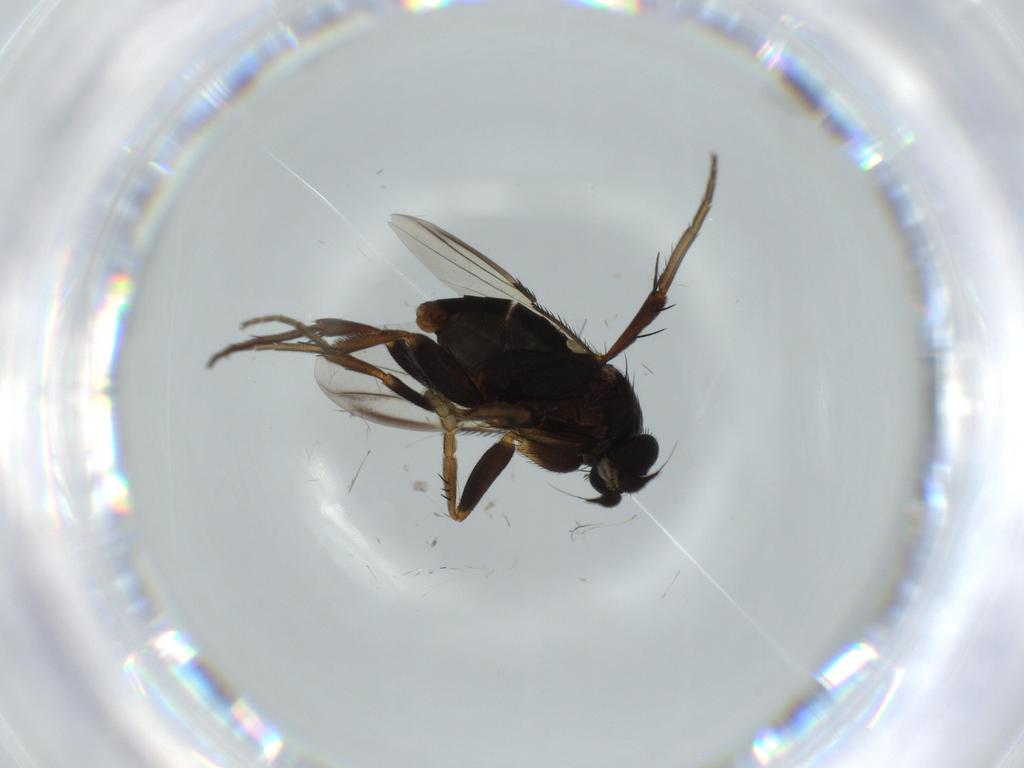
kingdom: Animalia
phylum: Arthropoda
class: Insecta
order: Diptera
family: Phoridae
